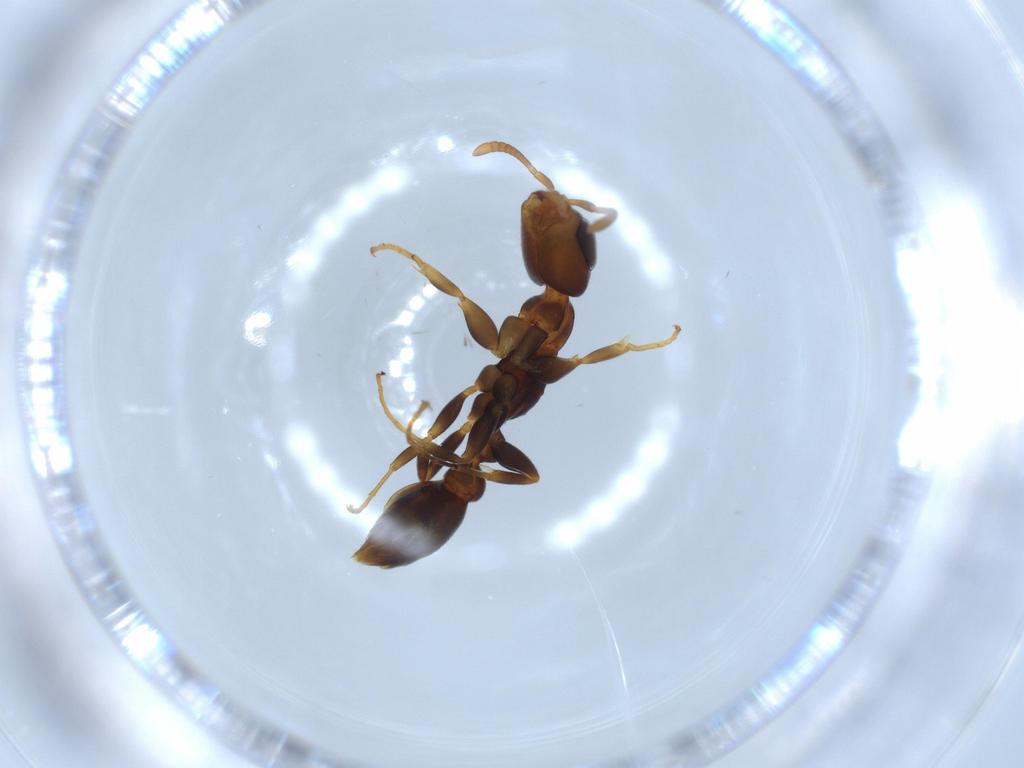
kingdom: Animalia
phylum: Arthropoda
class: Insecta
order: Hymenoptera
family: Formicidae
